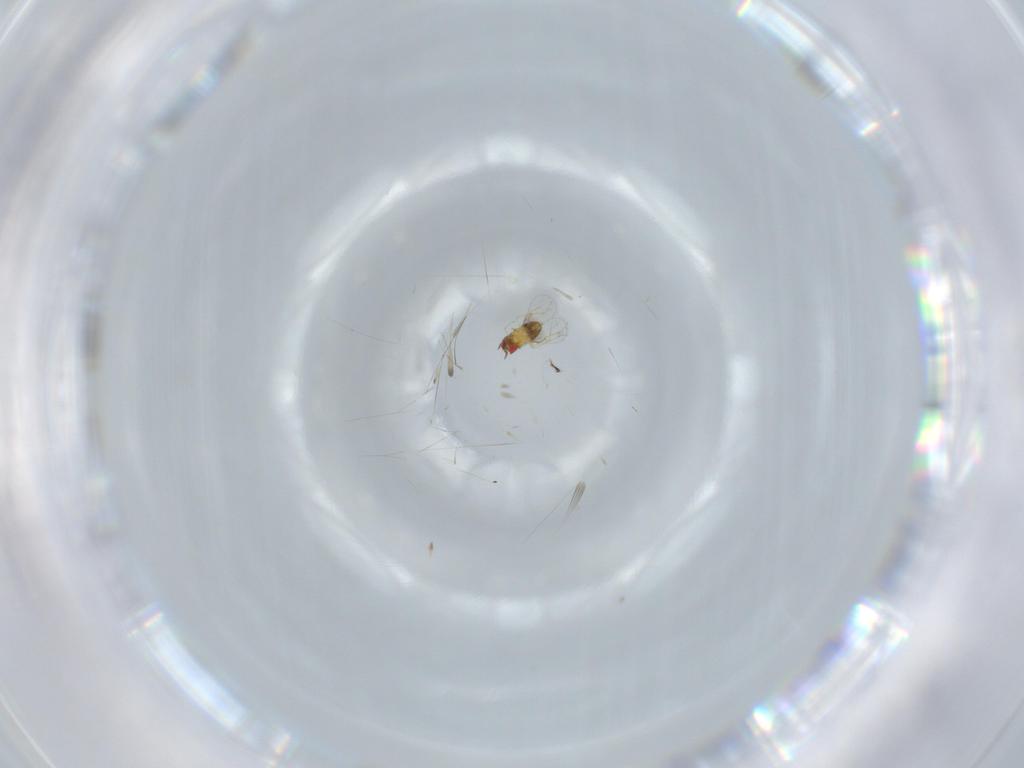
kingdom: Animalia
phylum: Arthropoda
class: Insecta
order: Hymenoptera
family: Trichogrammatidae
